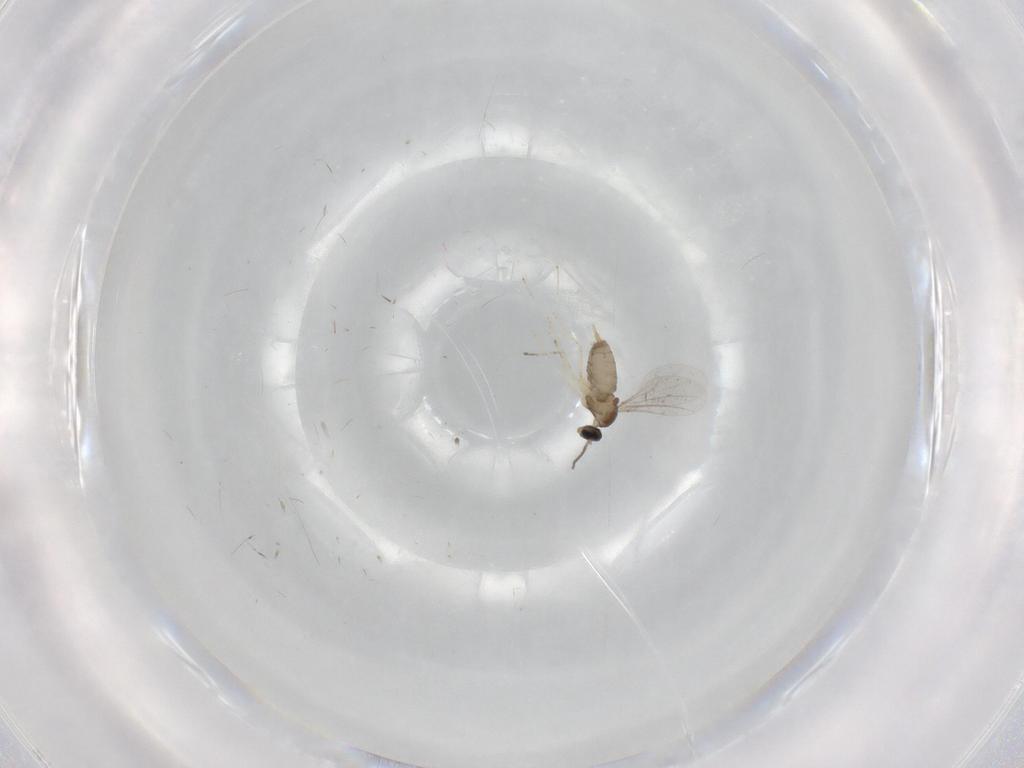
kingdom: Animalia
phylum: Arthropoda
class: Insecta
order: Diptera
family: Cecidomyiidae
